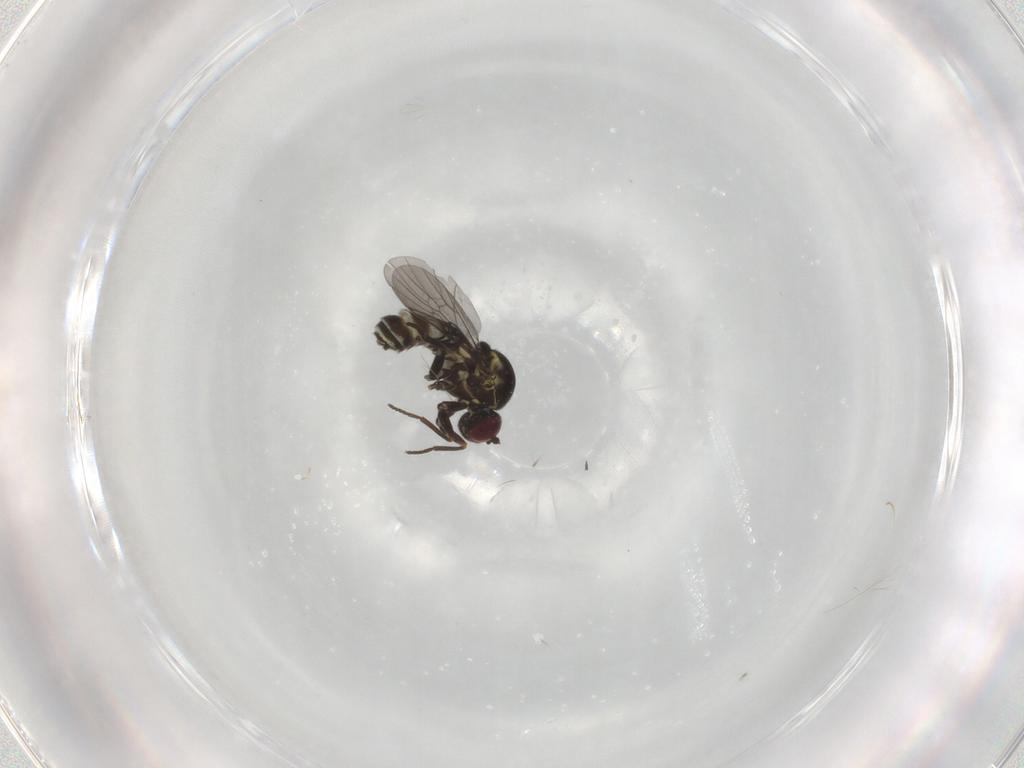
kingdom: Animalia
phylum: Arthropoda
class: Insecta
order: Diptera
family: Mythicomyiidae
